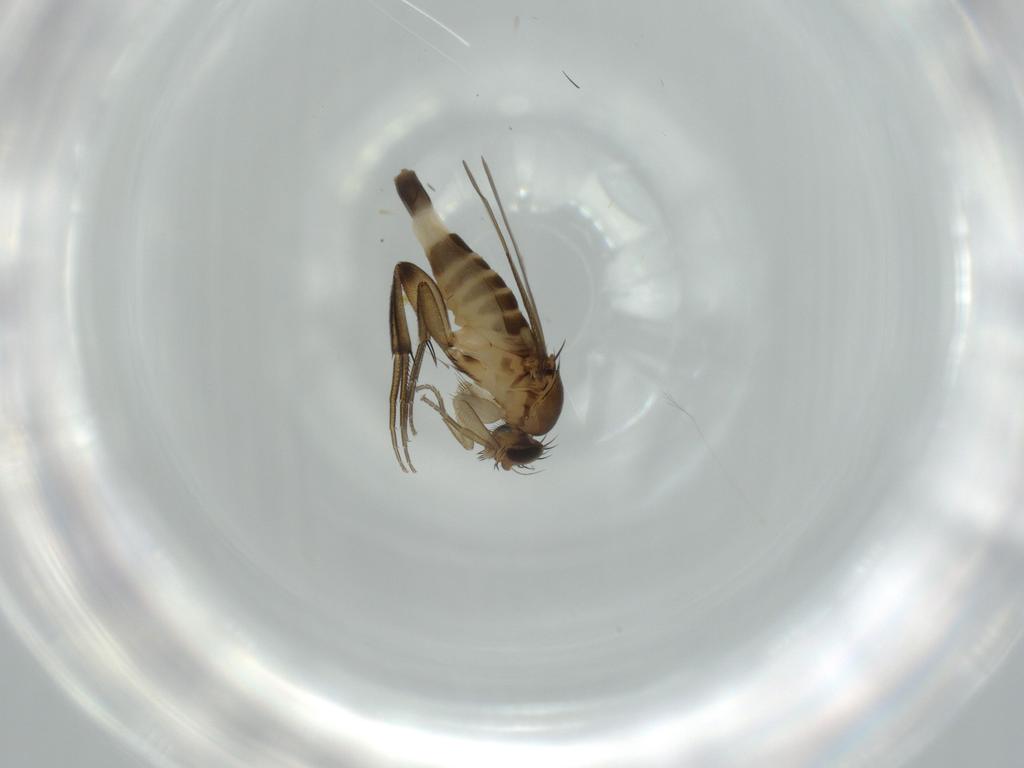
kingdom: Animalia
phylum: Arthropoda
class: Insecta
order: Diptera
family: Phoridae
